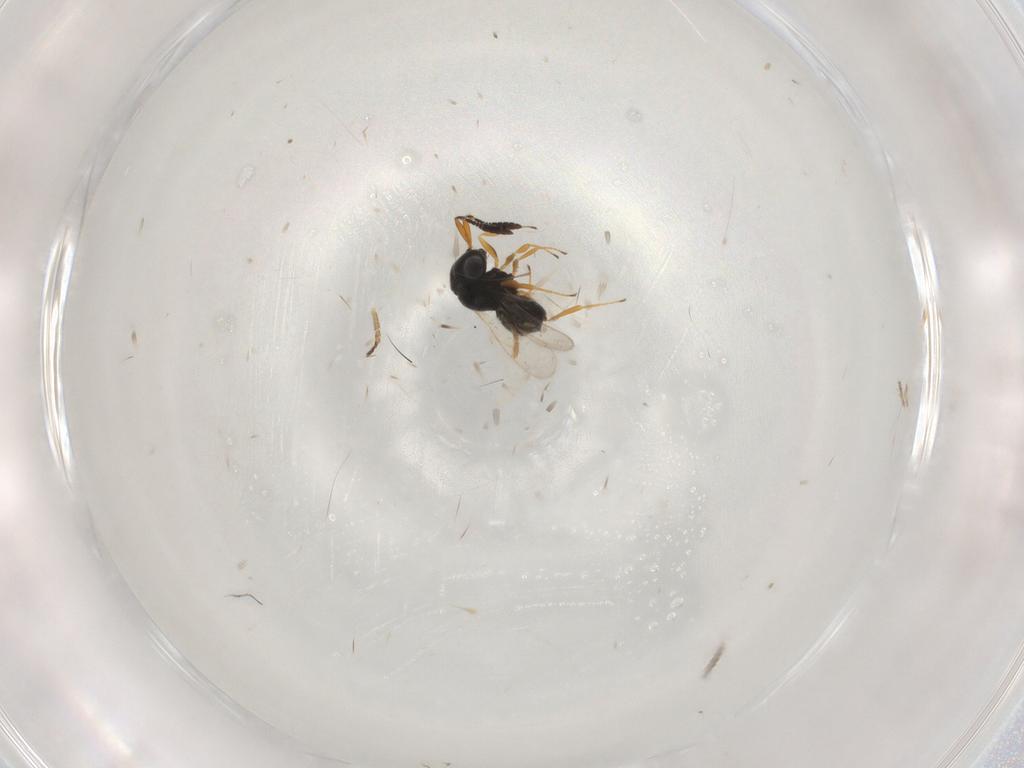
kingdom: Animalia
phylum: Arthropoda
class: Insecta
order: Hymenoptera
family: Scelionidae
